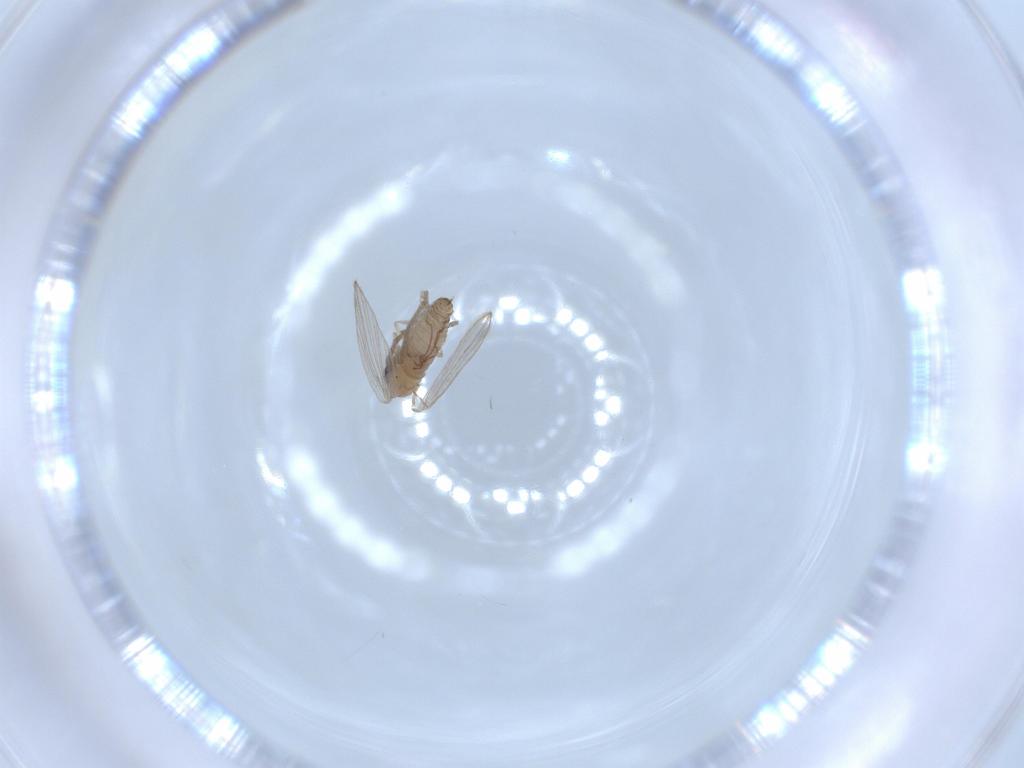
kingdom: Animalia
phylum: Arthropoda
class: Insecta
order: Diptera
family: Psychodidae
